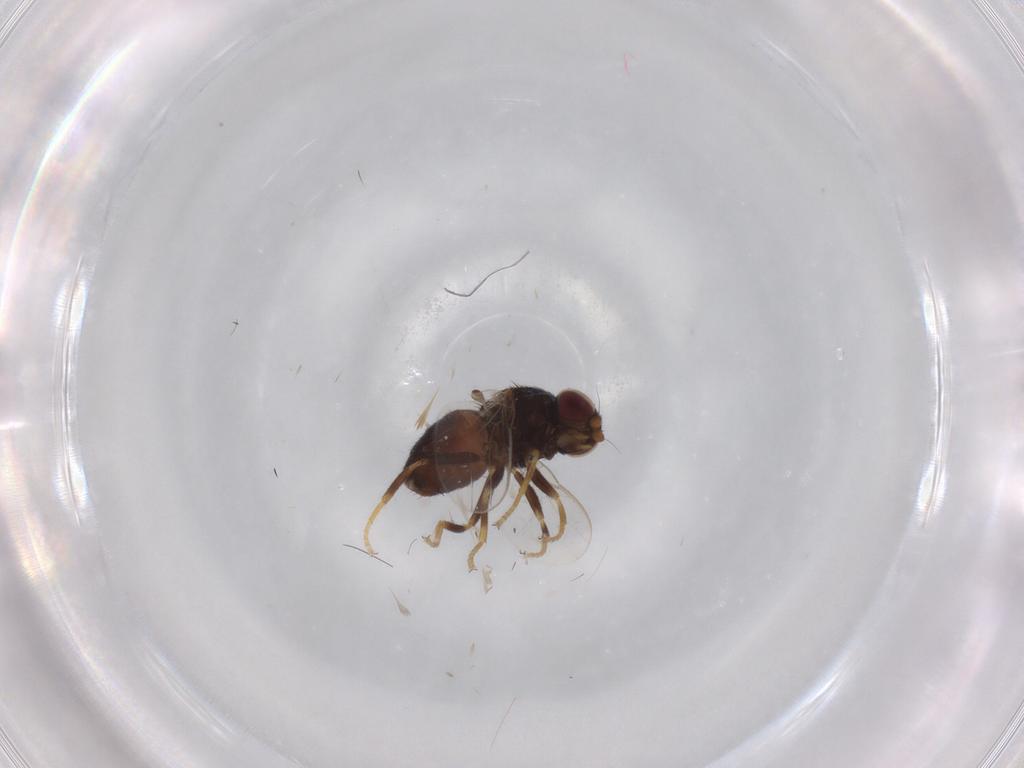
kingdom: Animalia
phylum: Arthropoda
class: Insecta
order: Diptera
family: Chloropidae
